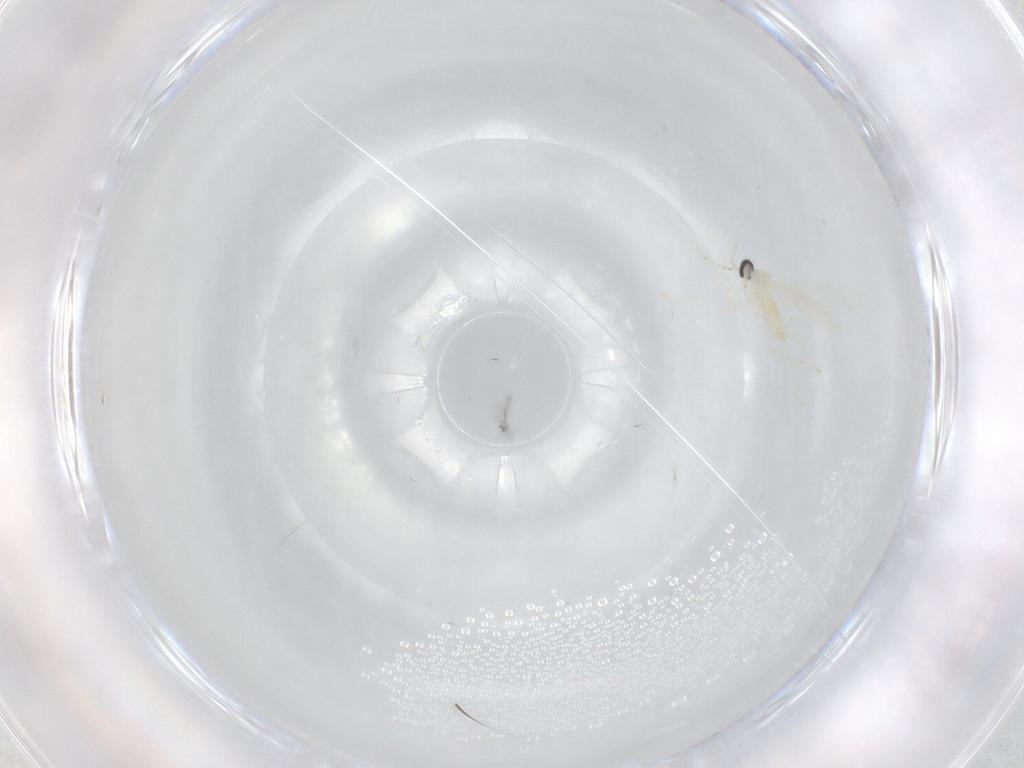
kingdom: Animalia
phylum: Arthropoda
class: Insecta
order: Diptera
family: Cecidomyiidae
